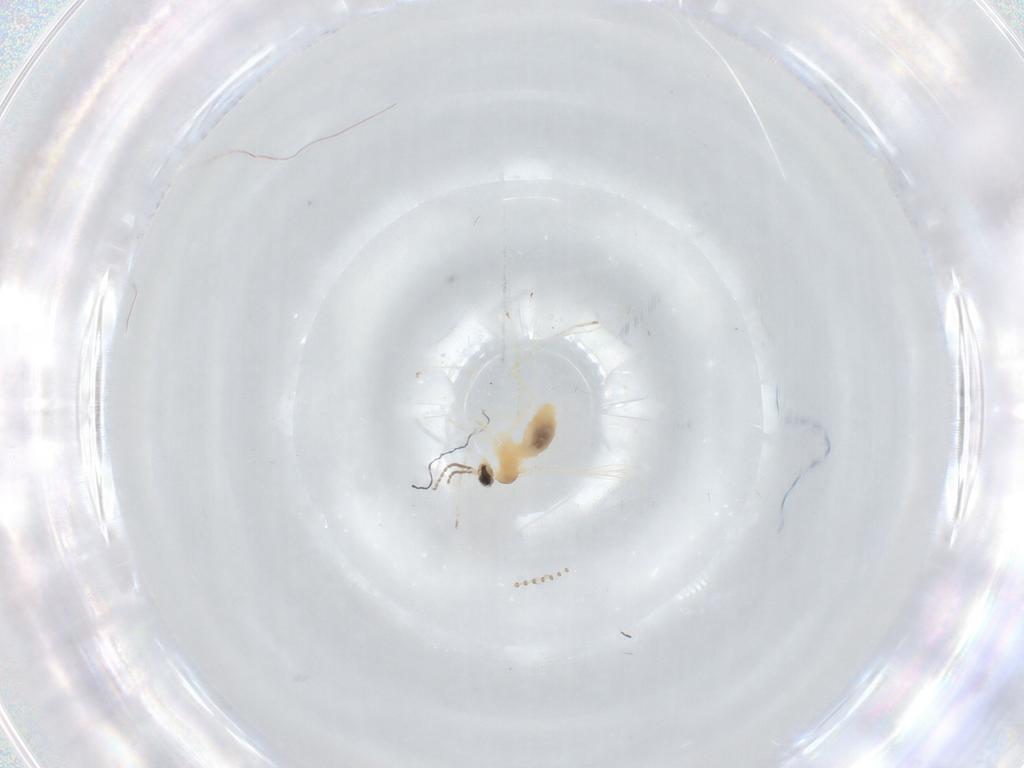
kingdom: Animalia
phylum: Arthropoda
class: Insecta
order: Diptera
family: Cecidomyiidae
